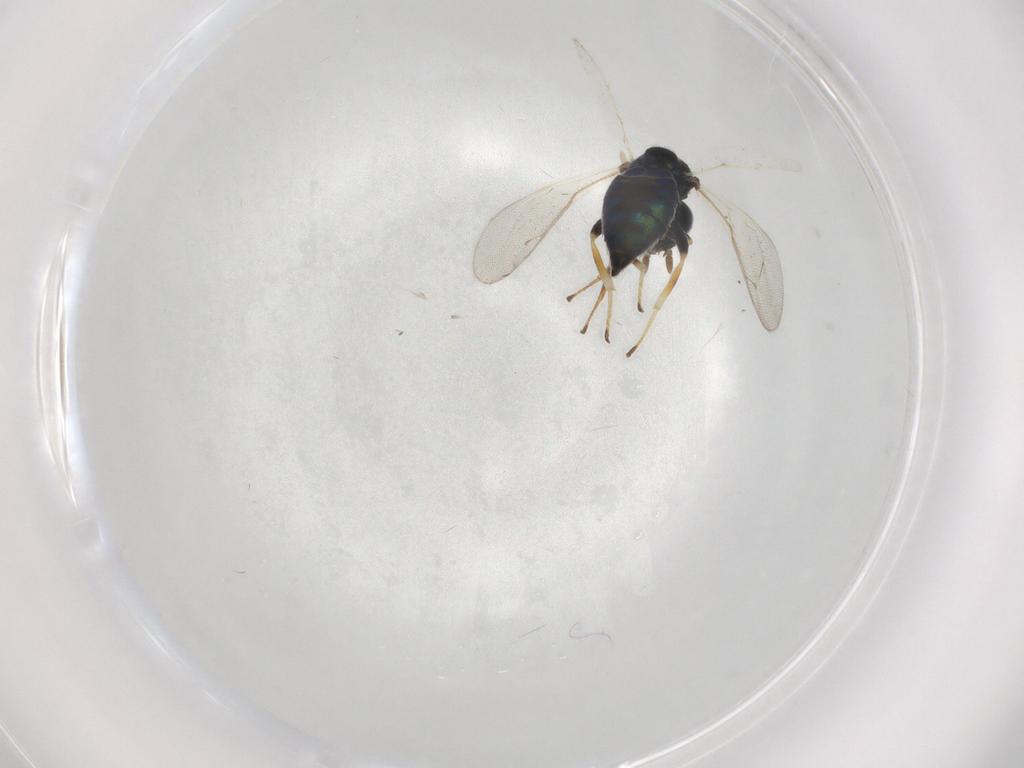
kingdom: Animalia
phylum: Arthropoda
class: Insecta
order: Hymenoptera
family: Pteromalidae
